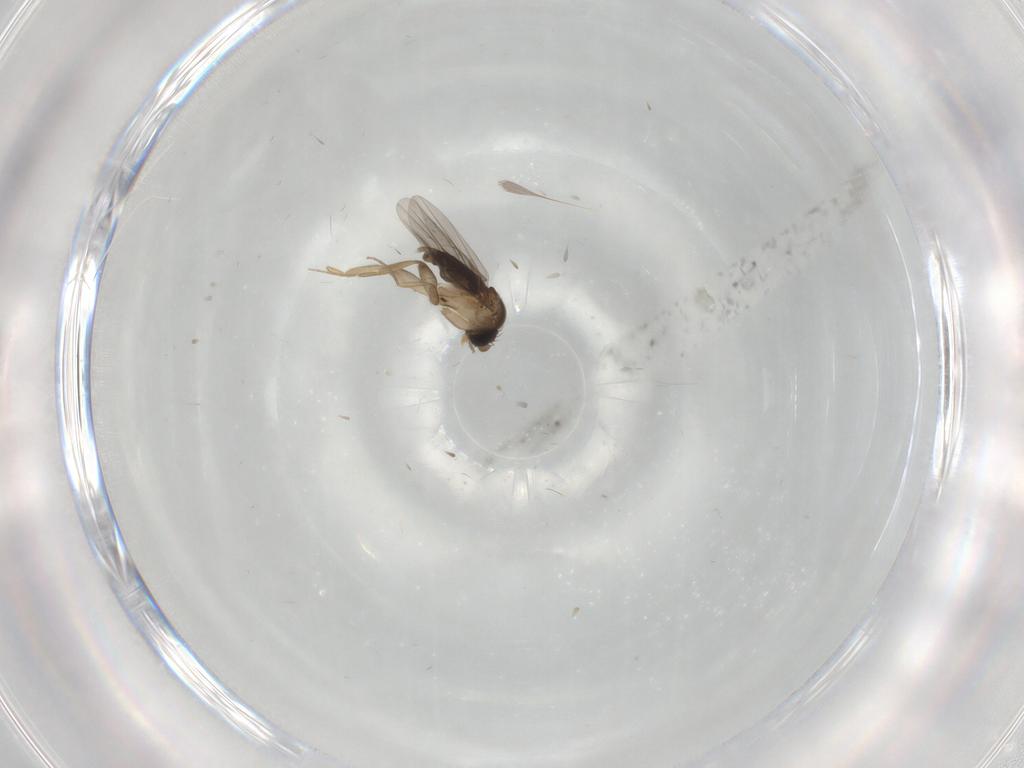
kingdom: Animalia
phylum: Arthropoda
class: Insecta
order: Diptera
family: Phoridae
